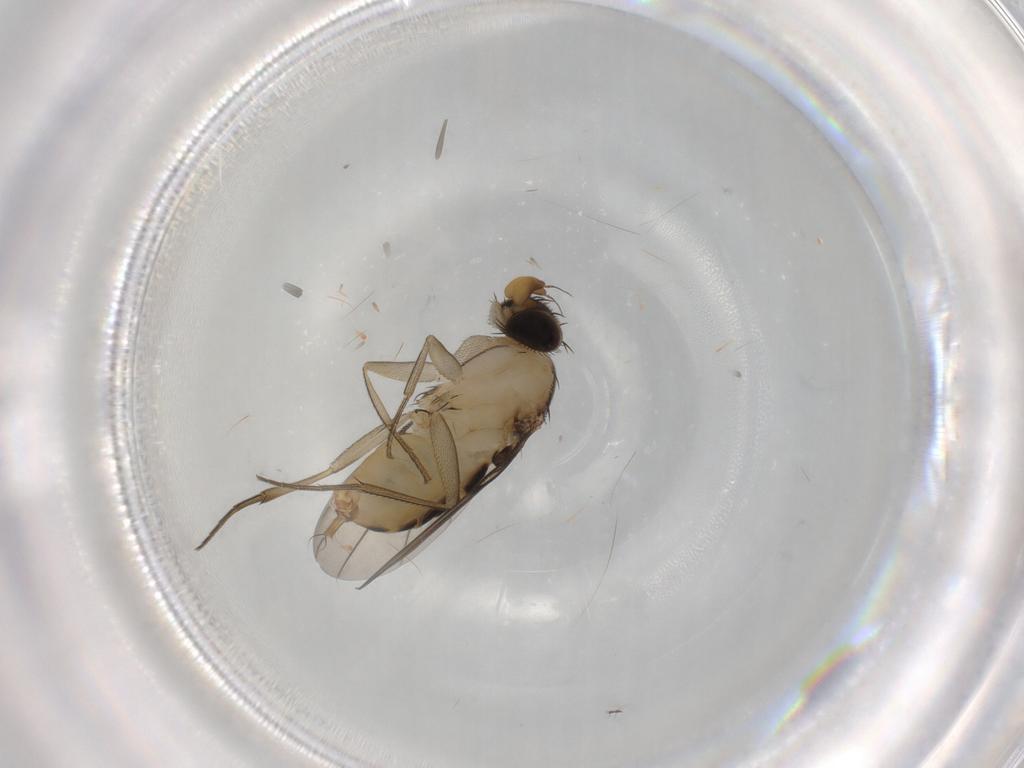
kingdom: Animalia
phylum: Arthropoda
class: Insecta
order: Diptera
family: Phoridae
